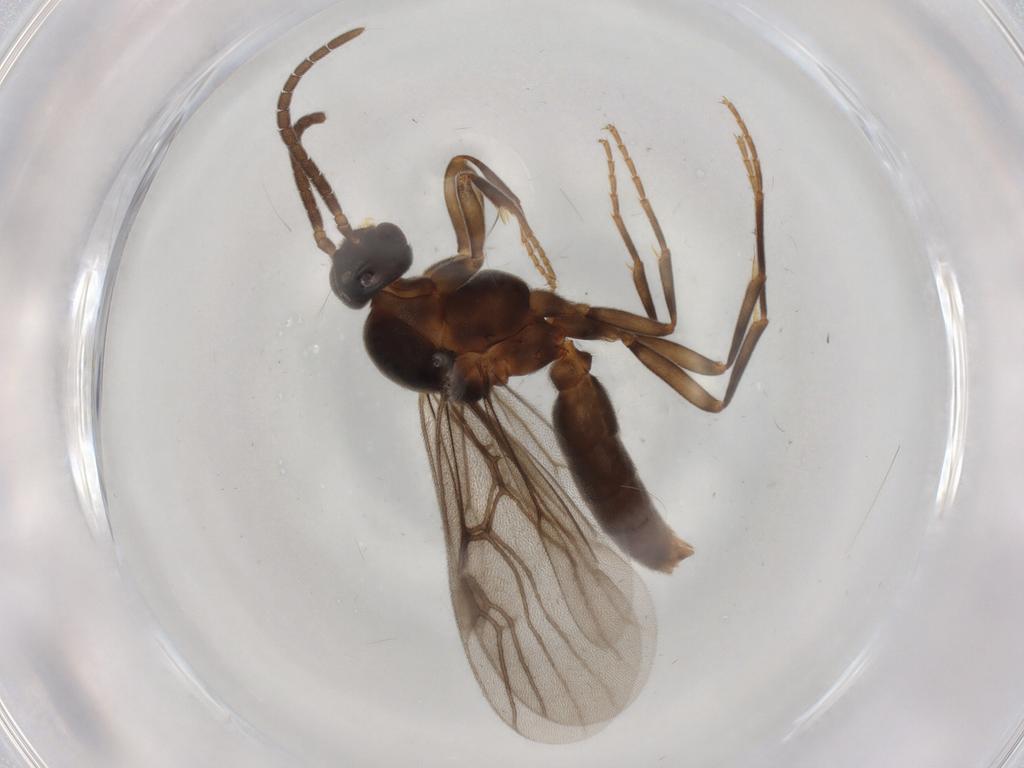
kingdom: Animalia
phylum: Arthropoda
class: Insecta
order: Hymenoptera
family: Formicidae
